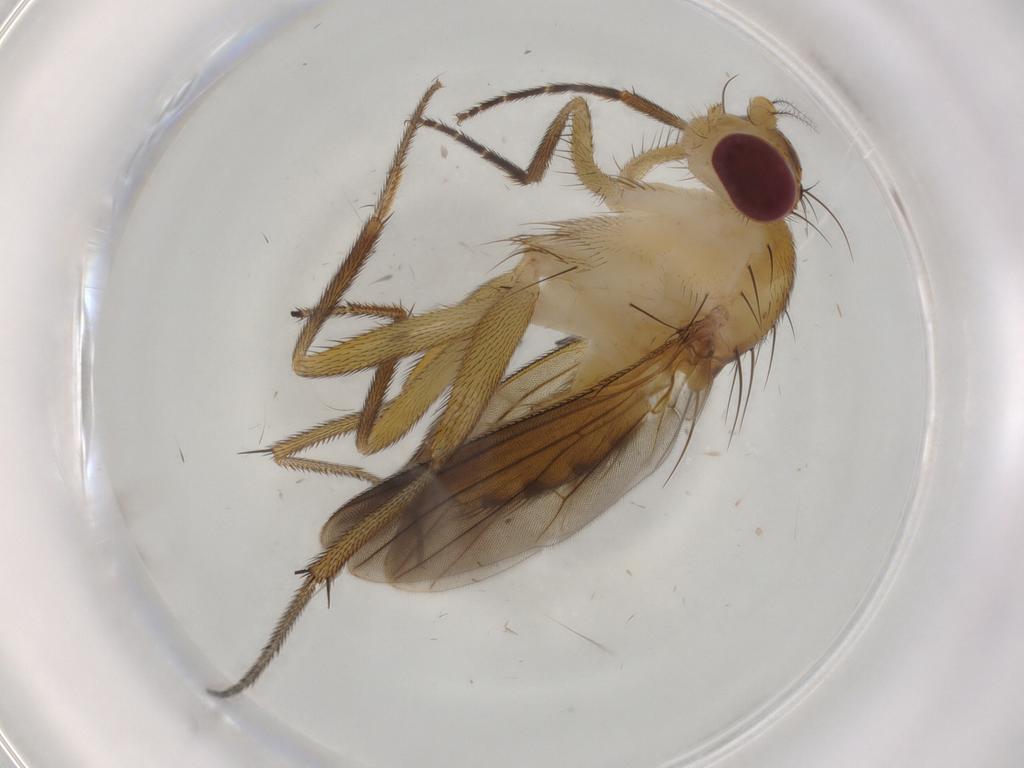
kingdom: Animalia
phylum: Arthropoda
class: Insecta
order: Diptera
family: Clusiidae
